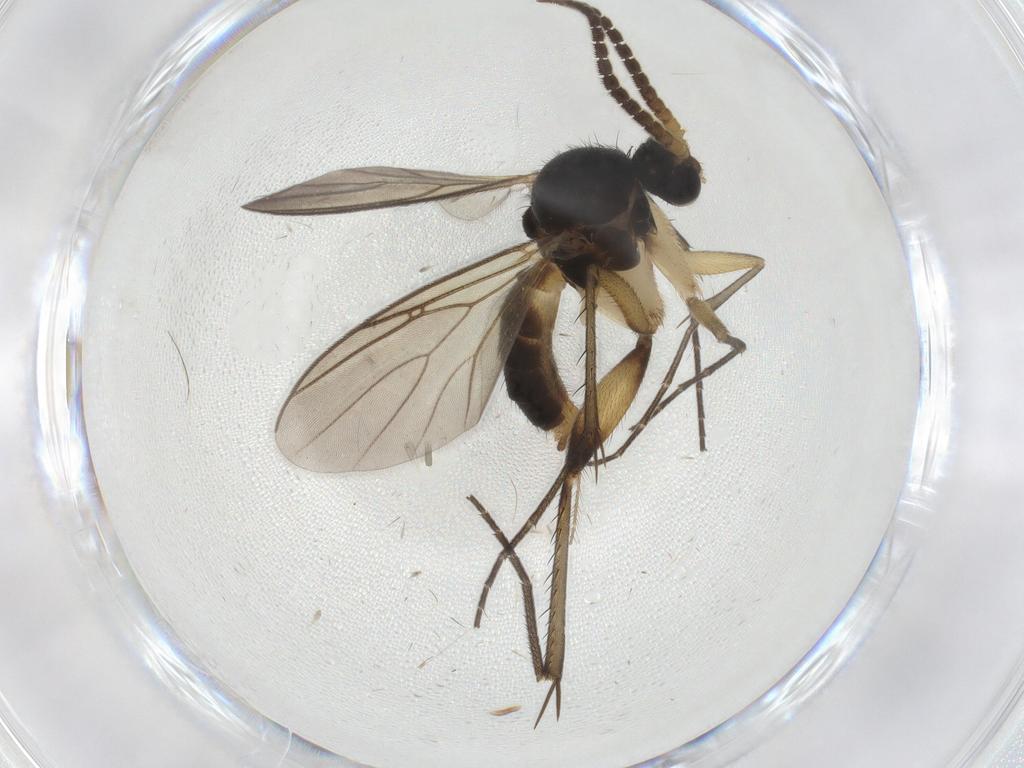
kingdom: Animalia
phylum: Arthropoda
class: Insecta
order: Diptera
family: Mycetophilidae
